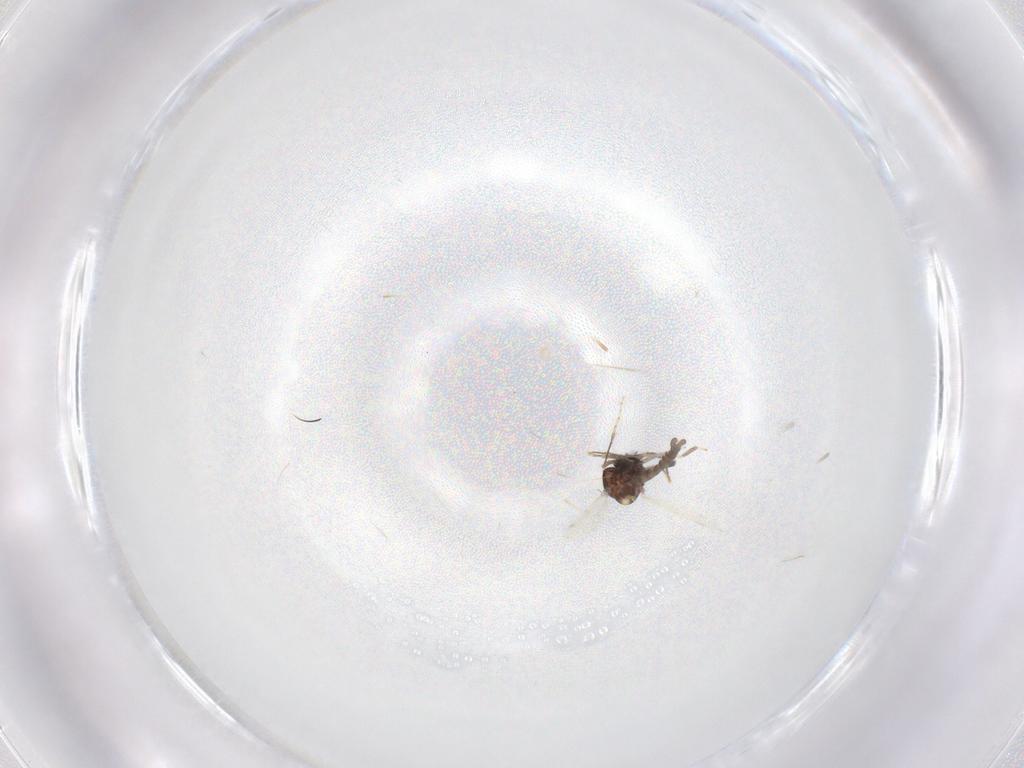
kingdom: Animalia
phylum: Arthropoda
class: Insecta
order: Diptera
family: Ceratopogonidae
